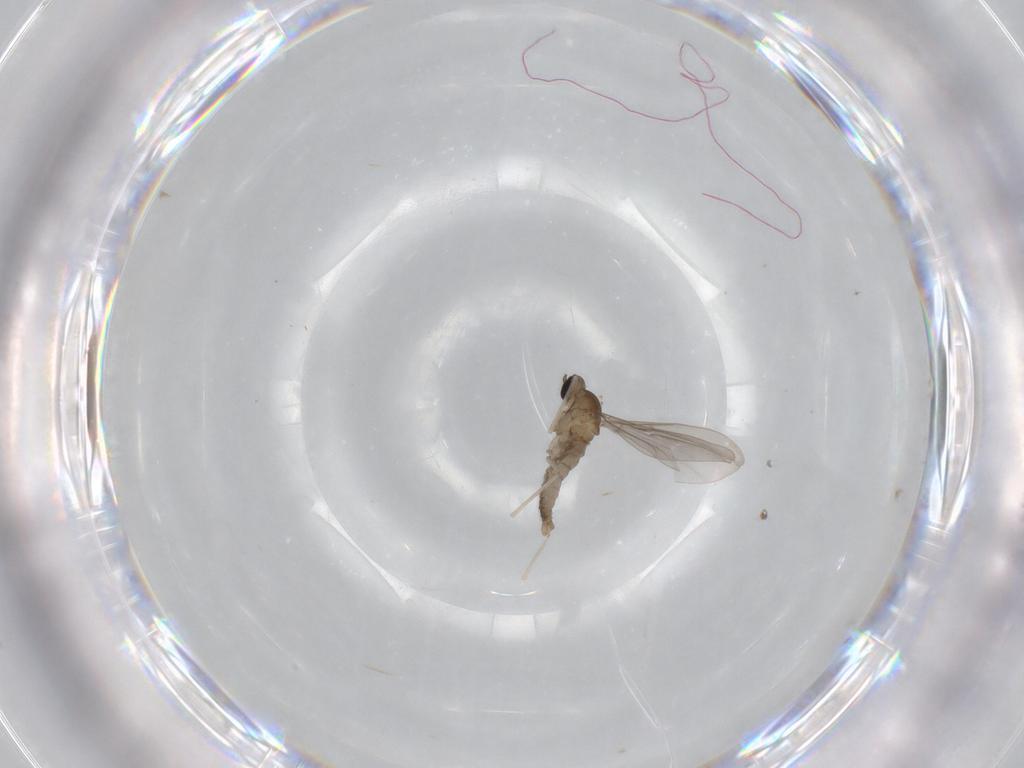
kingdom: Animalia
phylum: Arthropoda
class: Insecta
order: Diptera
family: Cecidomyiidae
